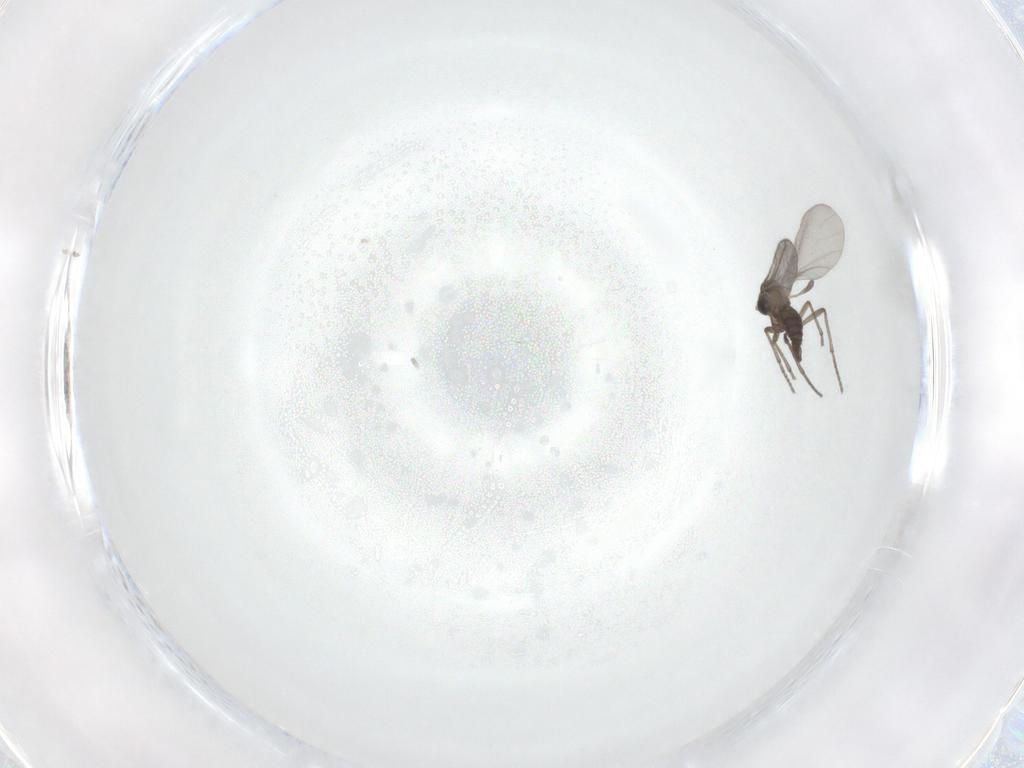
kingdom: Animalia
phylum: Arthropoda
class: Insecta
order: Diptera
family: Sciaridae
